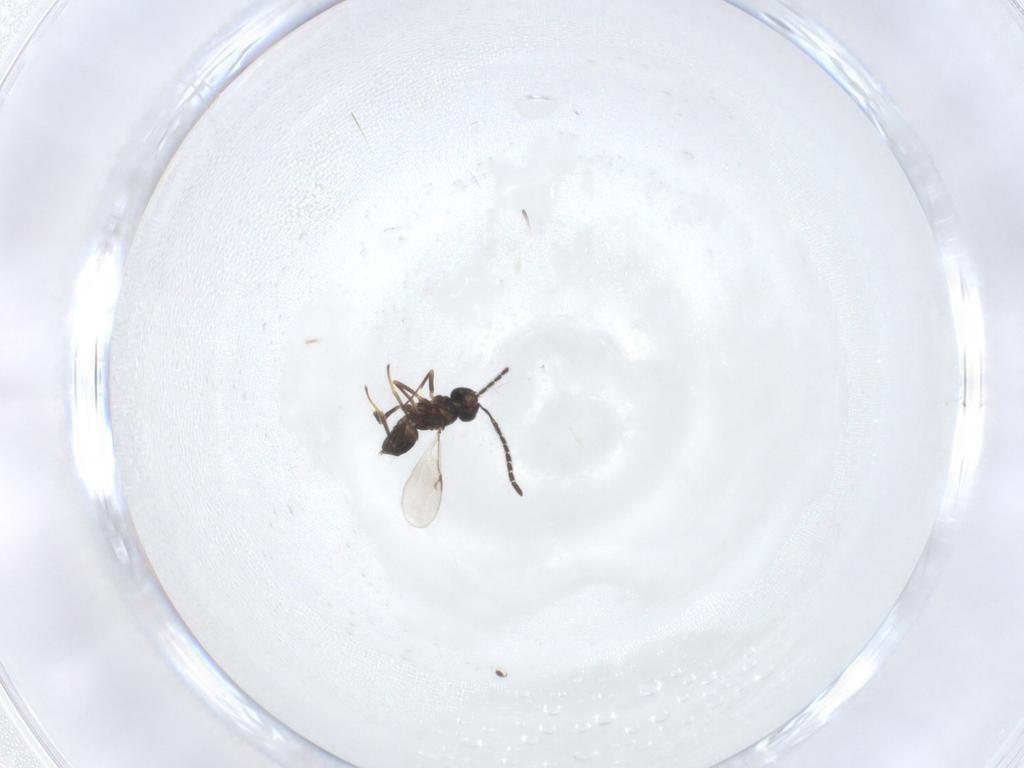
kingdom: Animalia
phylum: Arthropoda
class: Insecta
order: Hymenoptera
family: Encyrtidae
